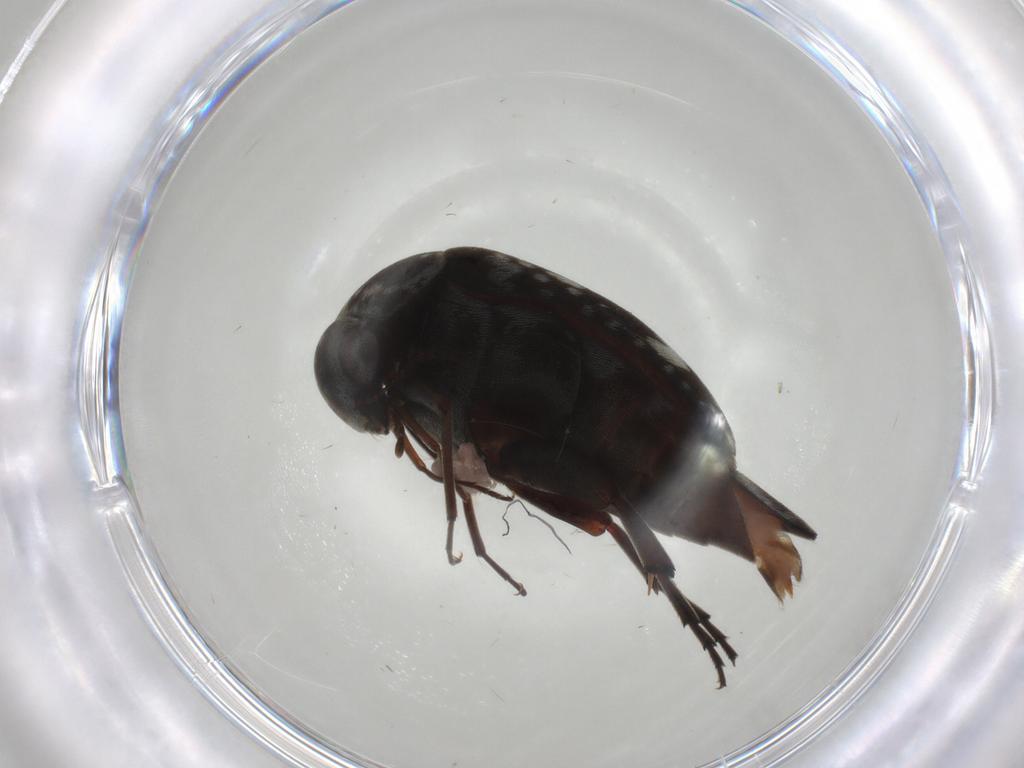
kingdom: Animalia
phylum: Arthropoda
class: Insecta
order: Coleoptera
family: Mordellidae
